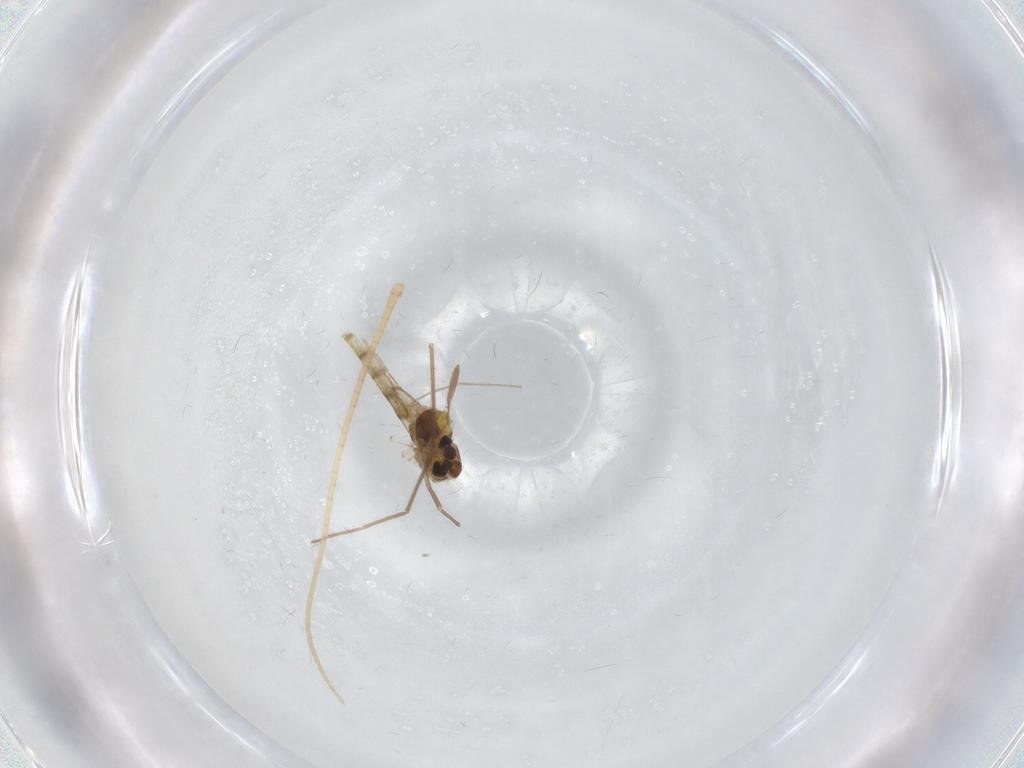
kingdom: Animalia
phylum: Arthropoda
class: Insecta
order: Diptera
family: Chironomidae
